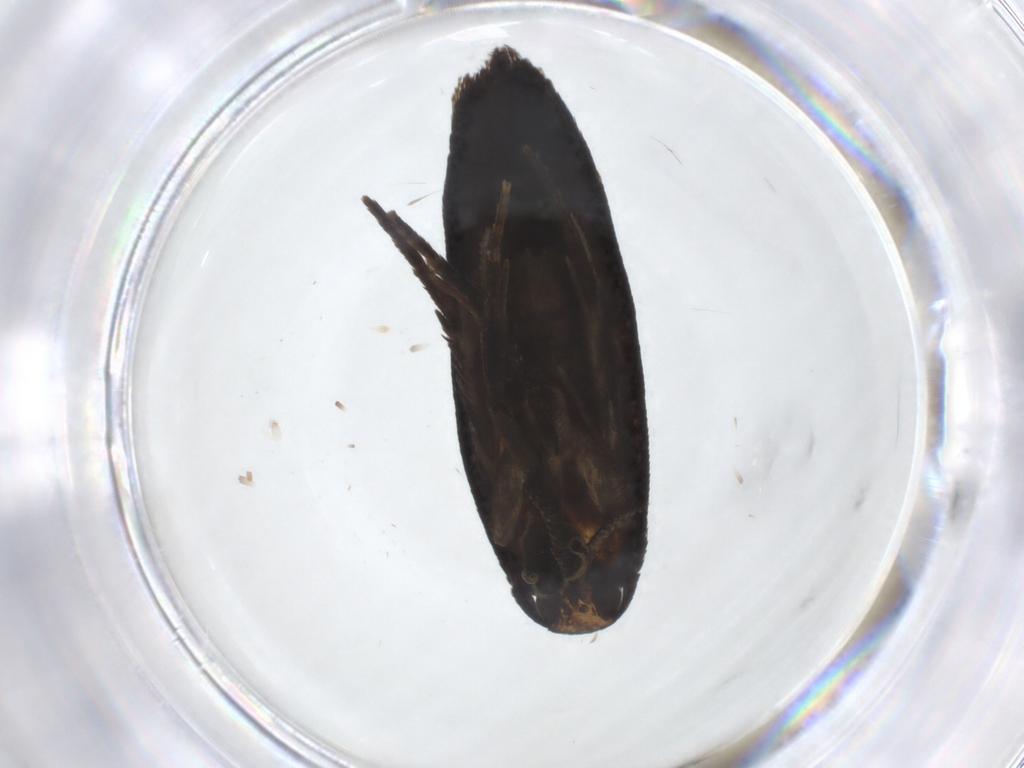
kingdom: Animalia
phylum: Arthropoda
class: Insecta
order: Lepidoptera
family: Oecophoridae
